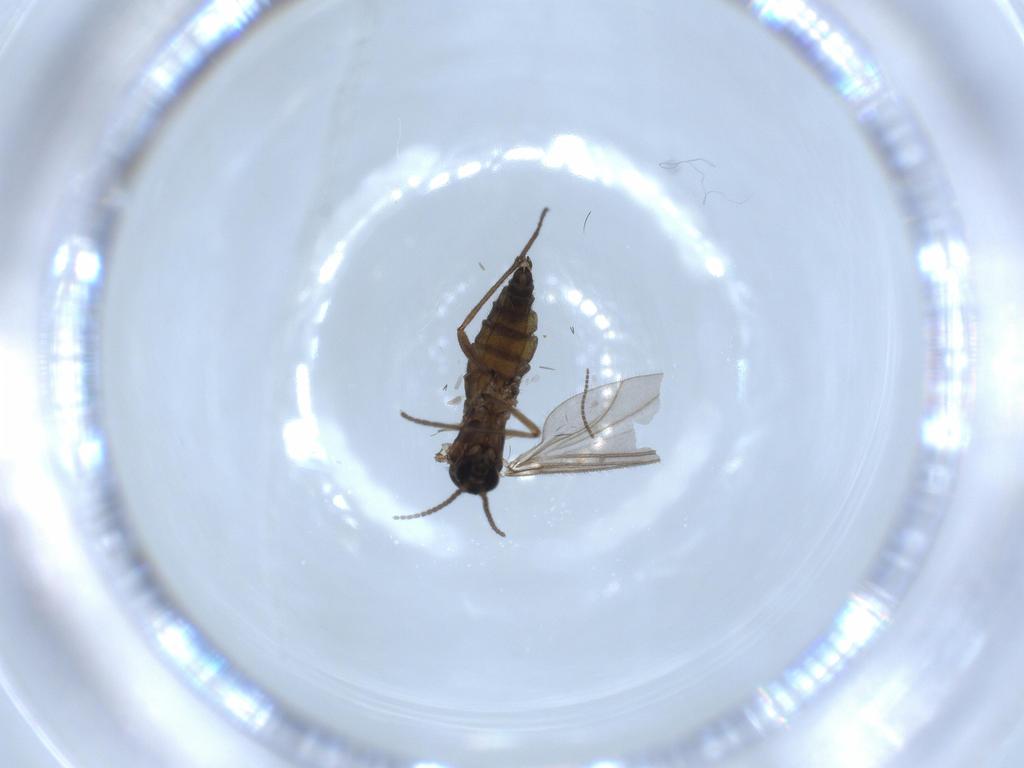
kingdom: Animalia
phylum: Arthropoda
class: Insecta
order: Diptera
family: Sciaridae
